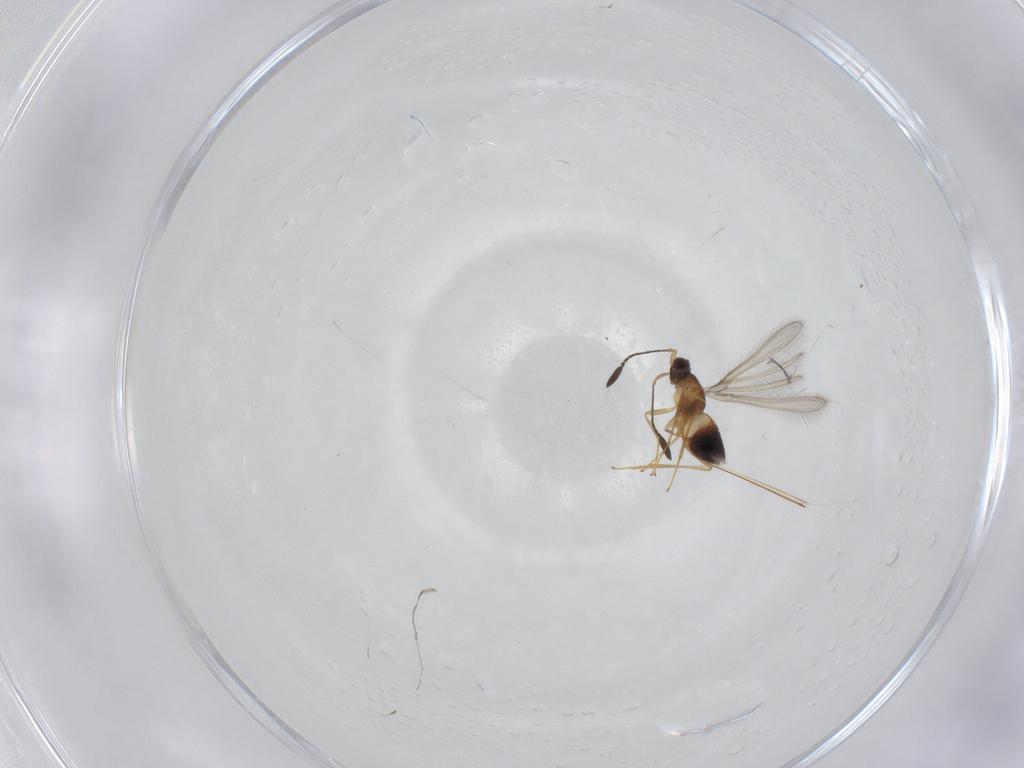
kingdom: Animalia
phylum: Arthropoda
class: Insecta
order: Hymenoptera
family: Mymaridae
